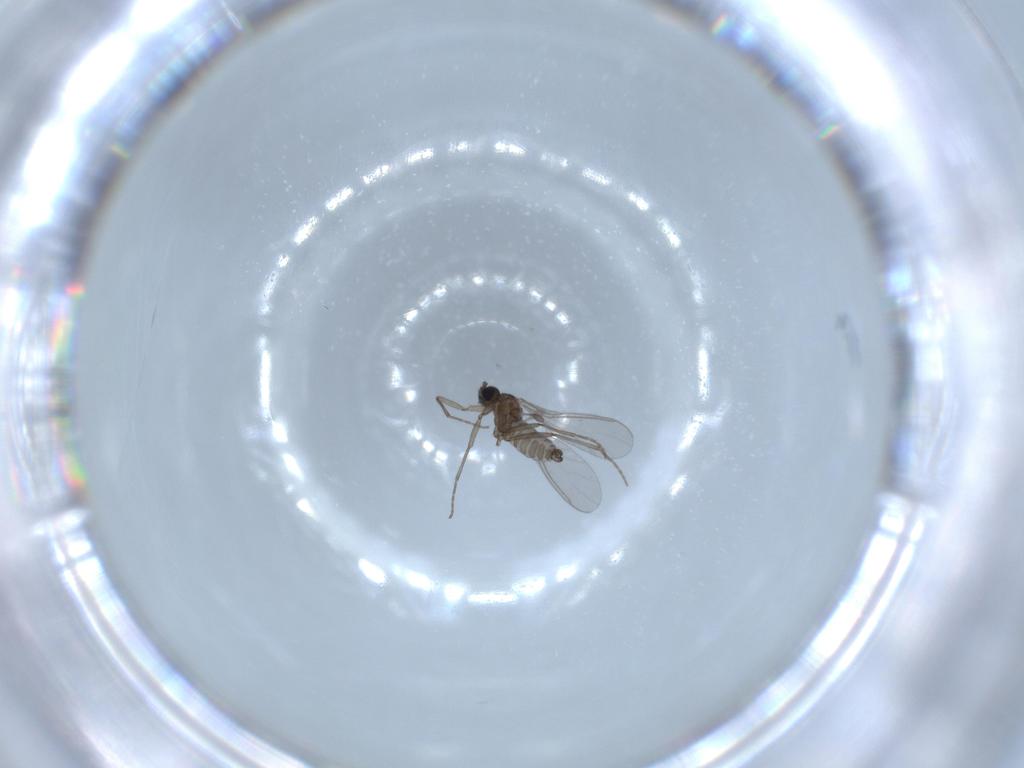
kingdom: Animalia
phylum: Arthropoda
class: Insecta
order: Diptera
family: Sciaridae
